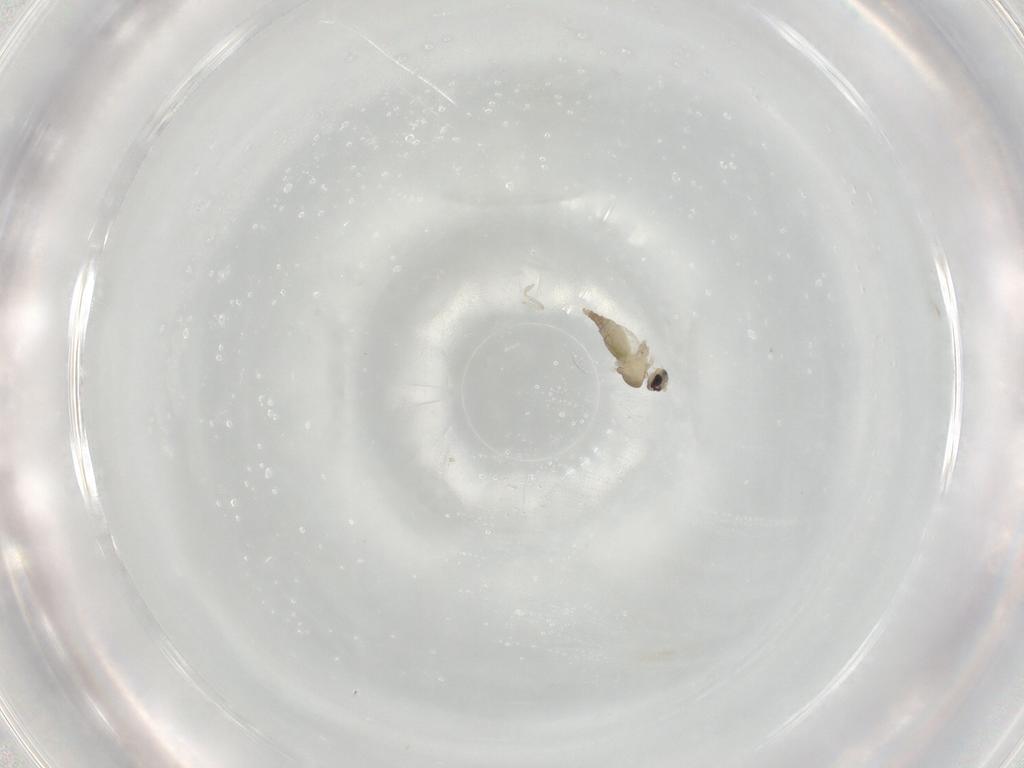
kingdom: Animalia
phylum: Arthropoda
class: Insecta
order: Diptera
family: Cecidomyiidae
